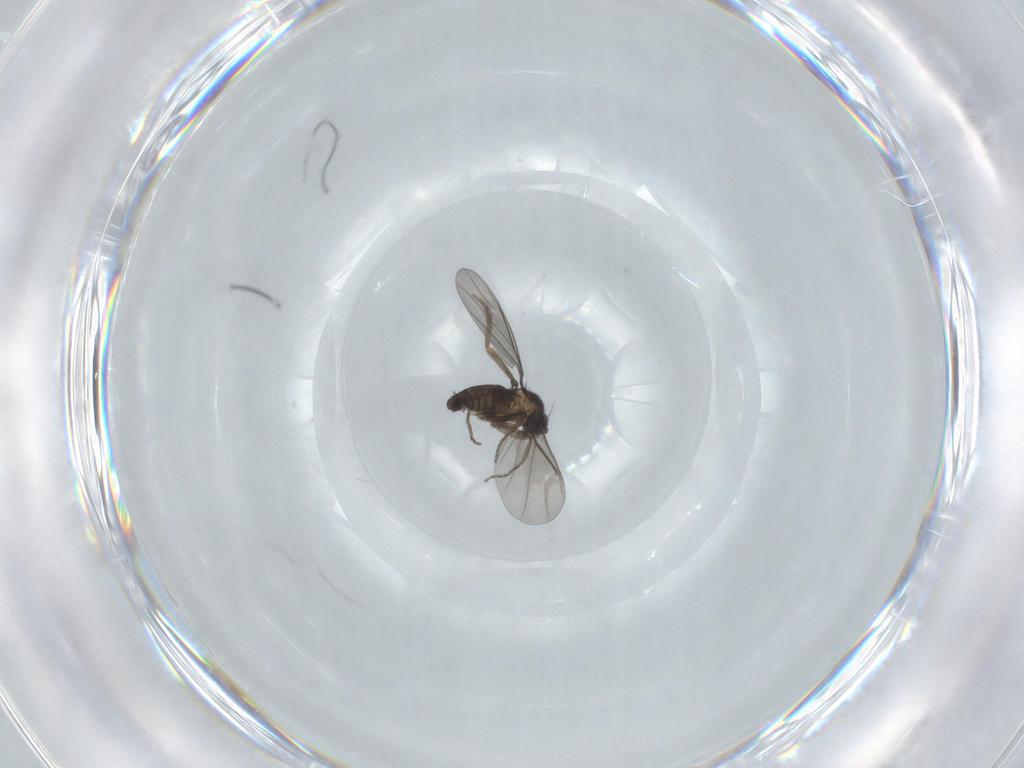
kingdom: Animalia
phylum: Arthropoda
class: Insecta
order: Diptera
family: Phoridae
